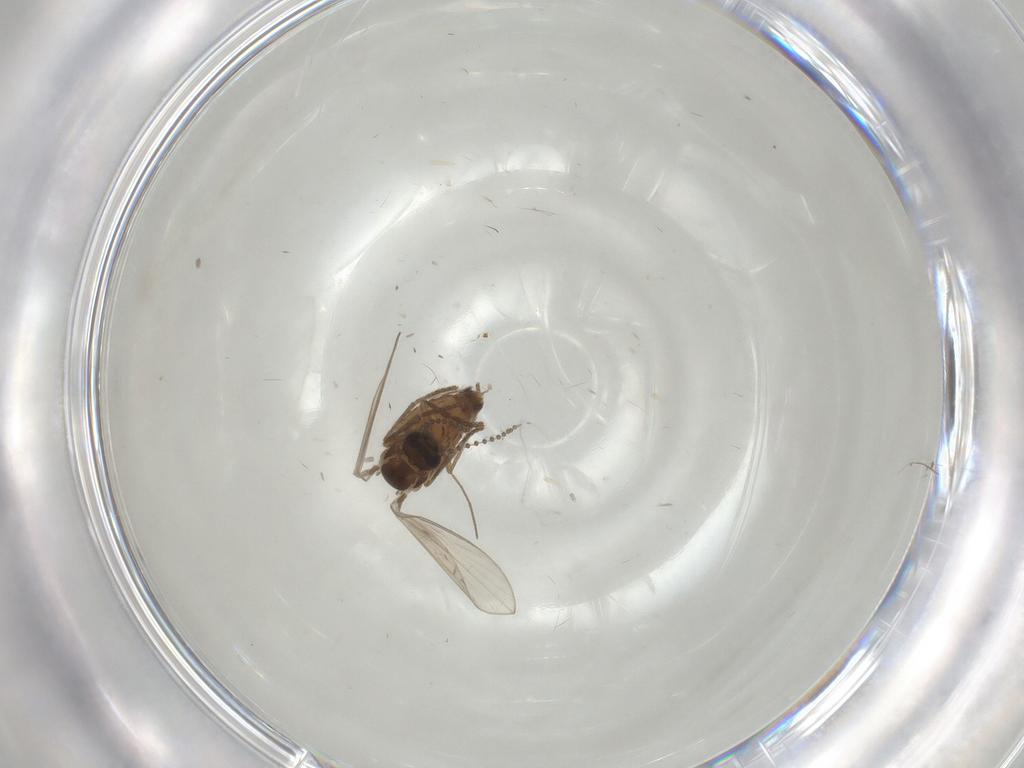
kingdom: Animalia
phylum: Arthropoda
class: Insecta
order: Diptera
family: Psychodidae
